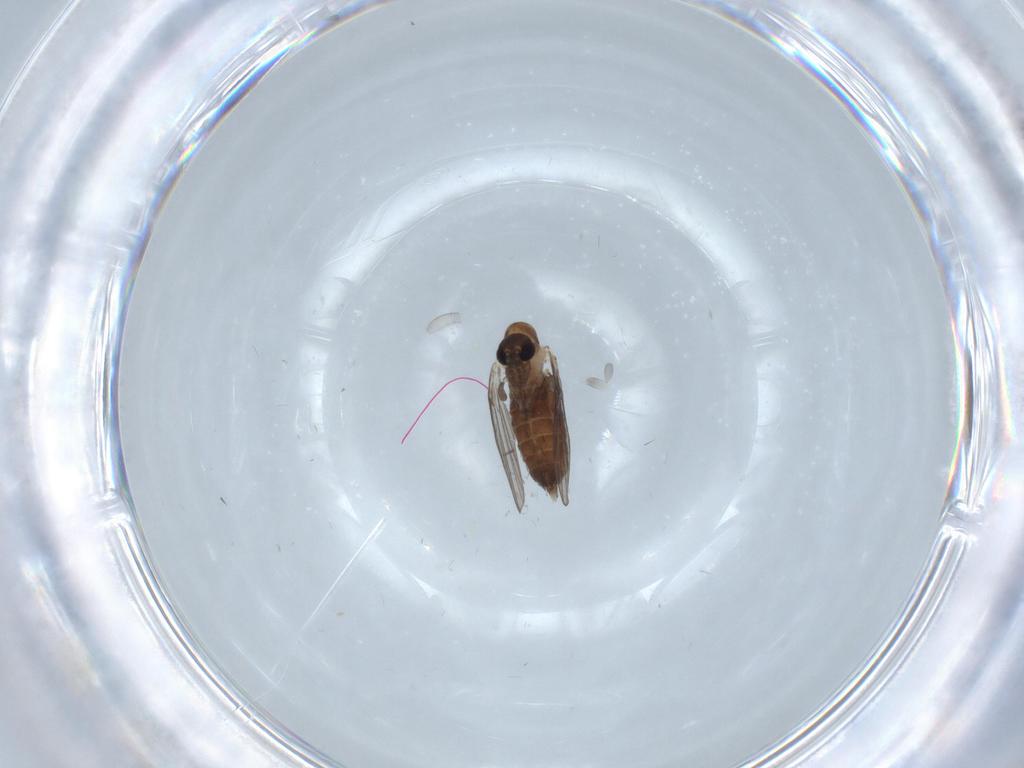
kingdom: Animalia
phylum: Arthropoda
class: Insecta
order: Diptera
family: Cecidomyiidae
